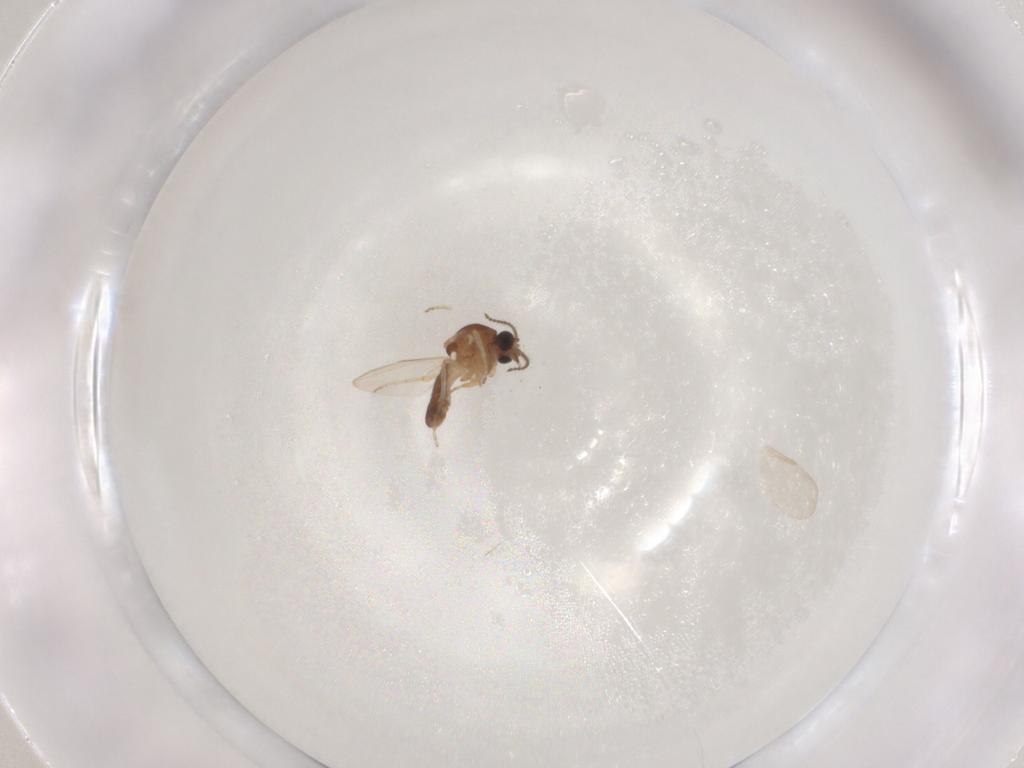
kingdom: Animalia
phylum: Arthropoda
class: Insecta
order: Diptera
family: Ceratopogonidae
